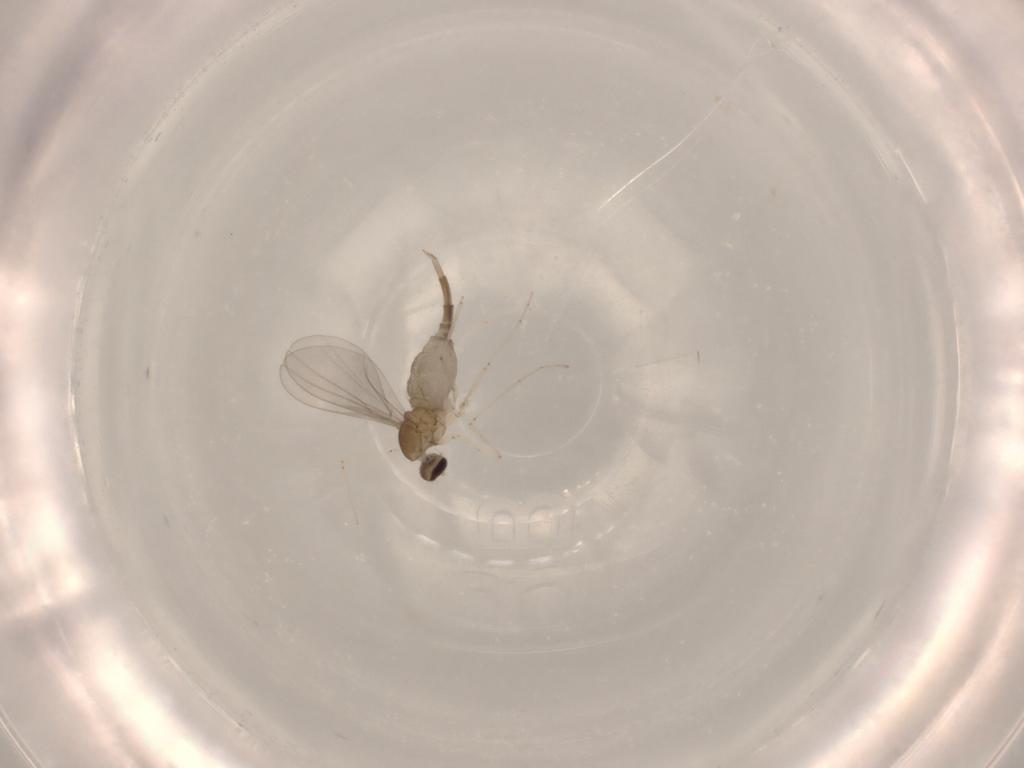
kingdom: Animalia
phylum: Arthropoda
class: Insecta
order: Diptera
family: Cecidomyiidae
